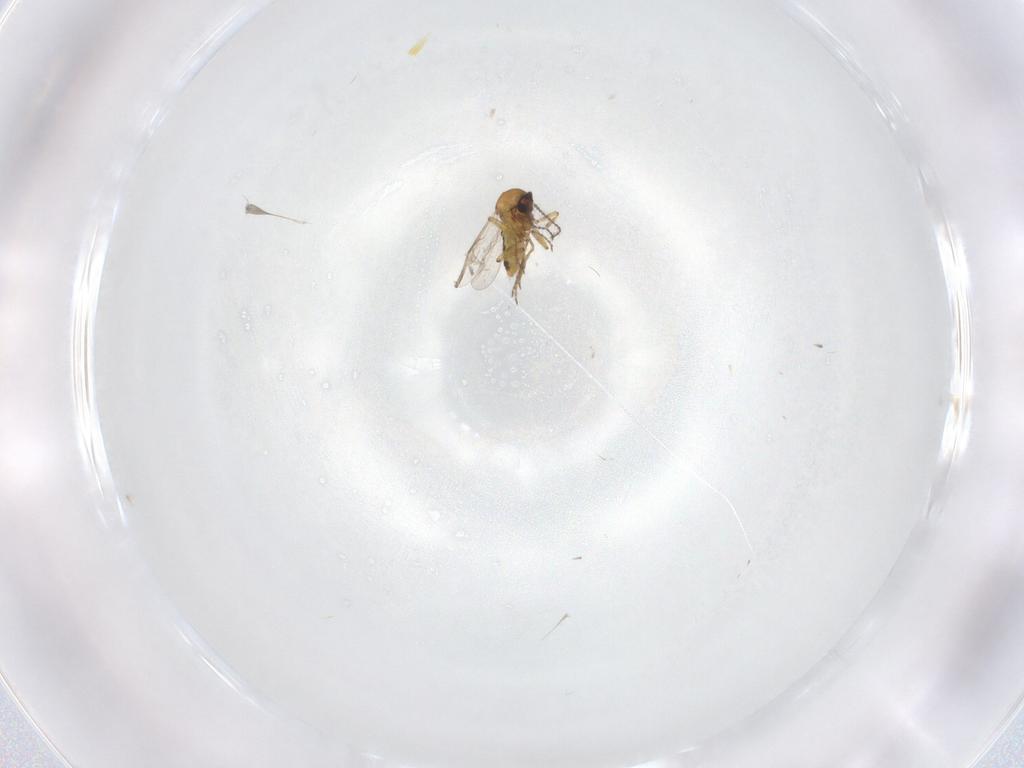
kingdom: Animalia
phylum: Arthropoda
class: Insecta
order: Diptera
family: Ceratopogonidae
